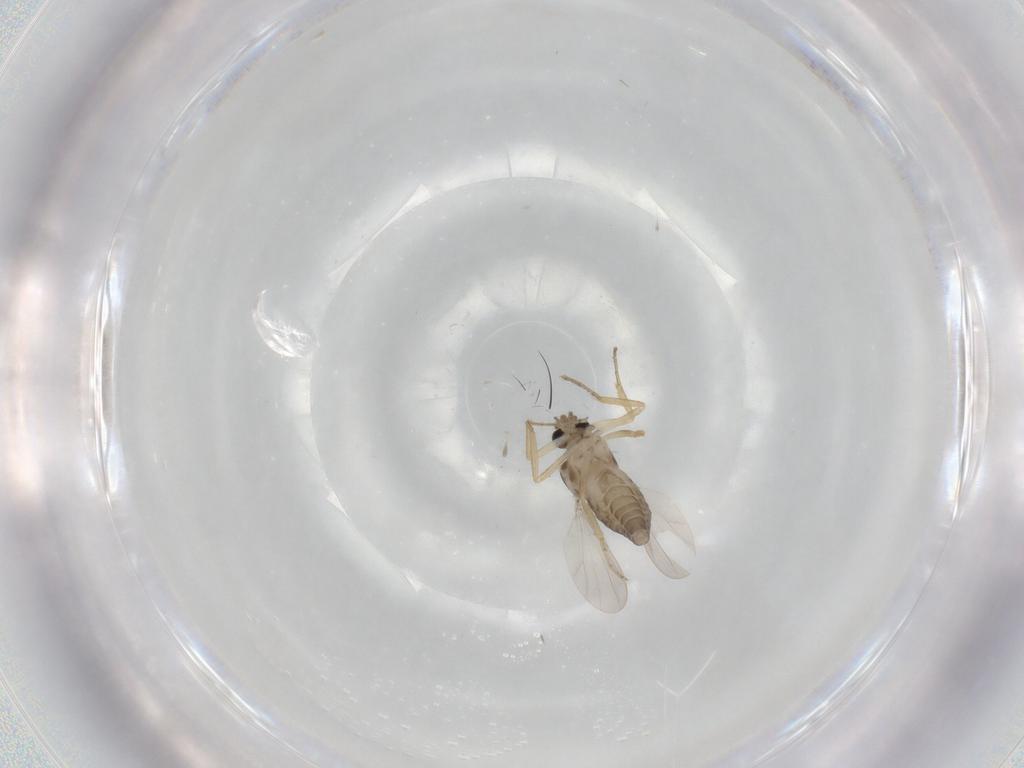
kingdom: Animalia
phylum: Arthropoda
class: Insecta
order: Diptera
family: Ceratopogonidae
